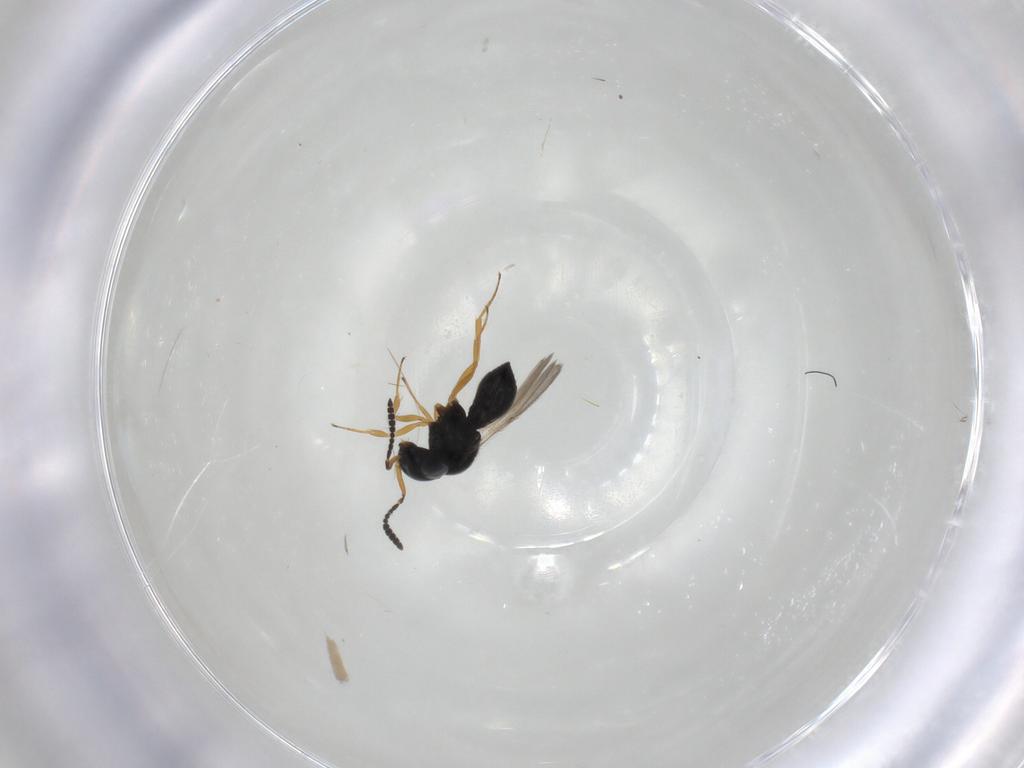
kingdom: Animalia
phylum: Arthropoda
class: Insecta
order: Hymenoptera
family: Scelionidae
